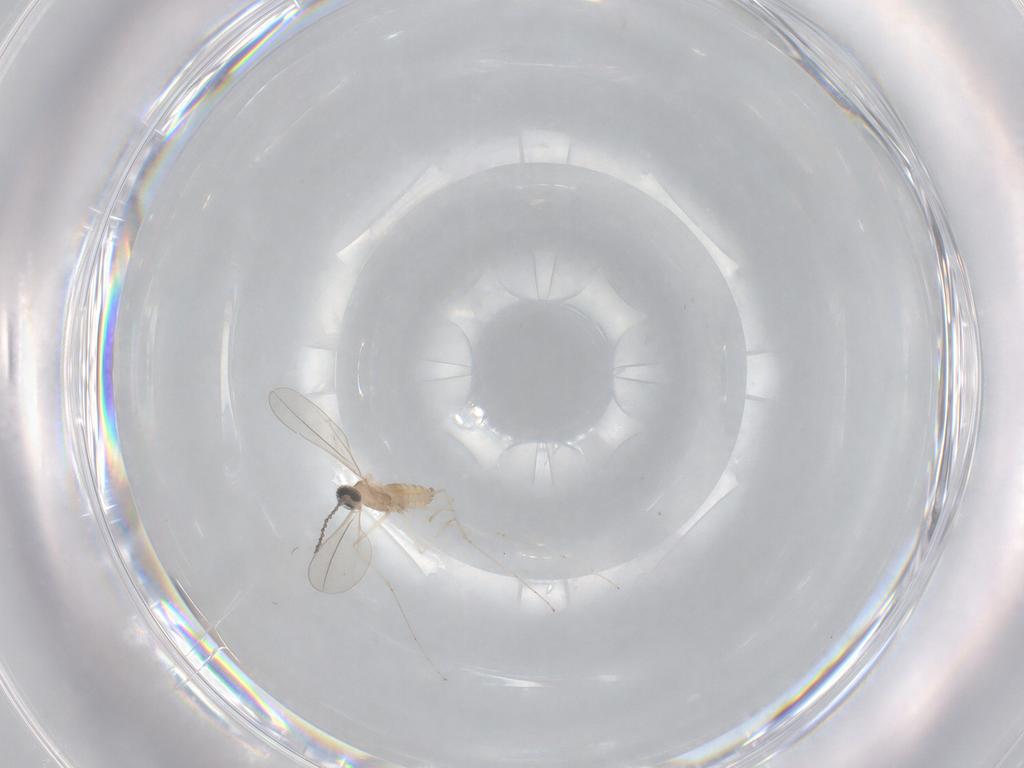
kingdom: Animalia
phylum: Arthropoda
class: Insecta
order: Diptera
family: Cecidomyiidae
